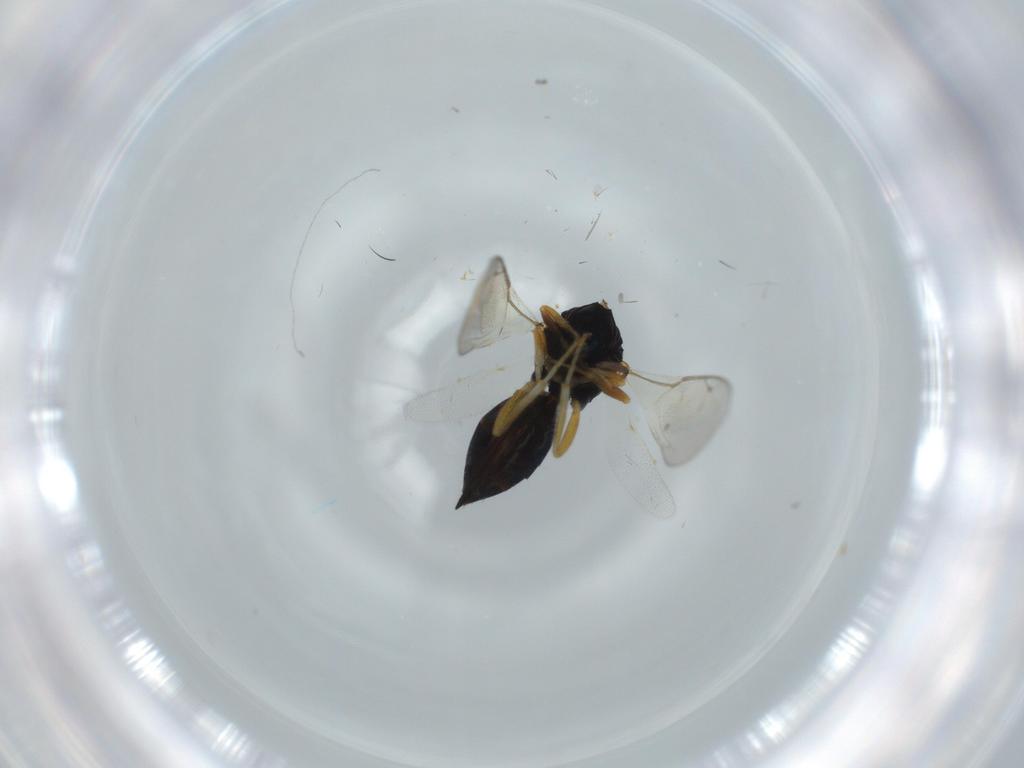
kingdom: Animalia
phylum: Arthropoda
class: Insecta
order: Hymenoptera
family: Pteromalidae
